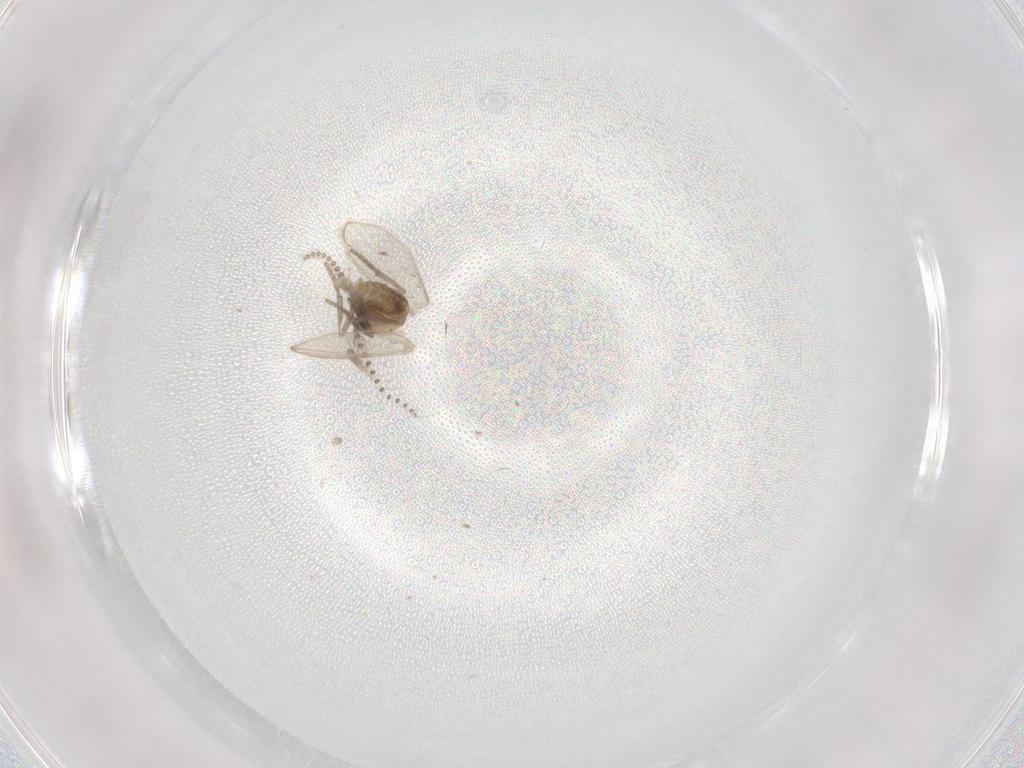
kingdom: Animalia
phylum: Arthropoda
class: Insecta
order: Diptera
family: Psychodidae
